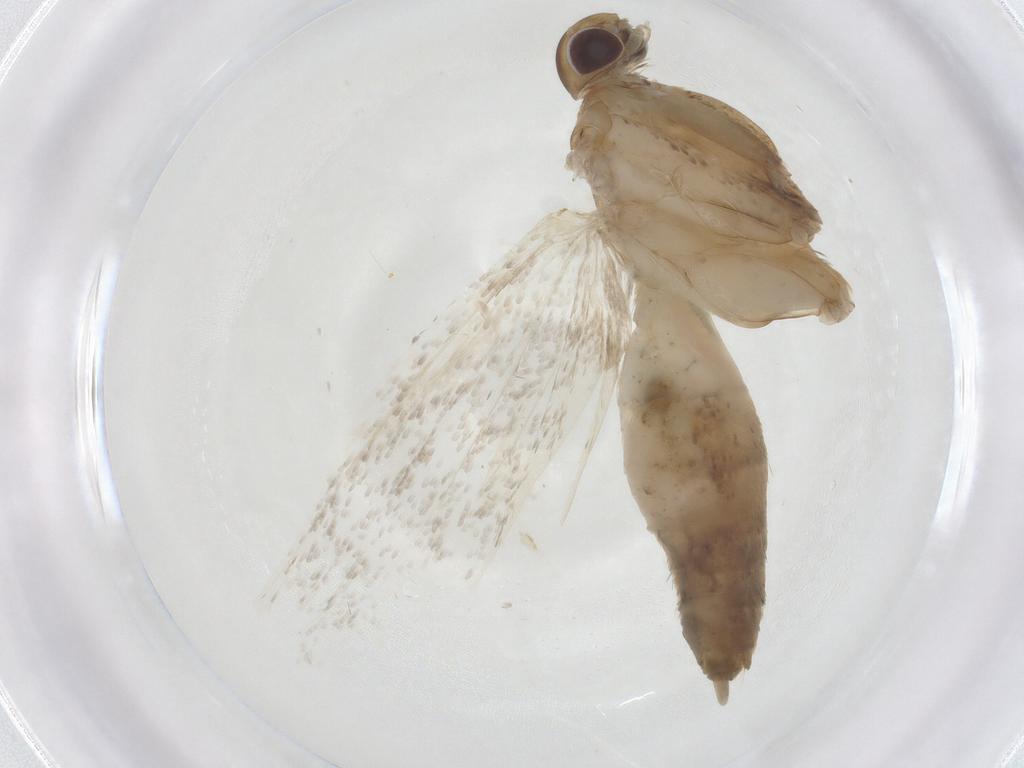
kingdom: Animalia
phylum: Arthropoda
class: Insecta
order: Lepidoptera
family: Depressariidae
